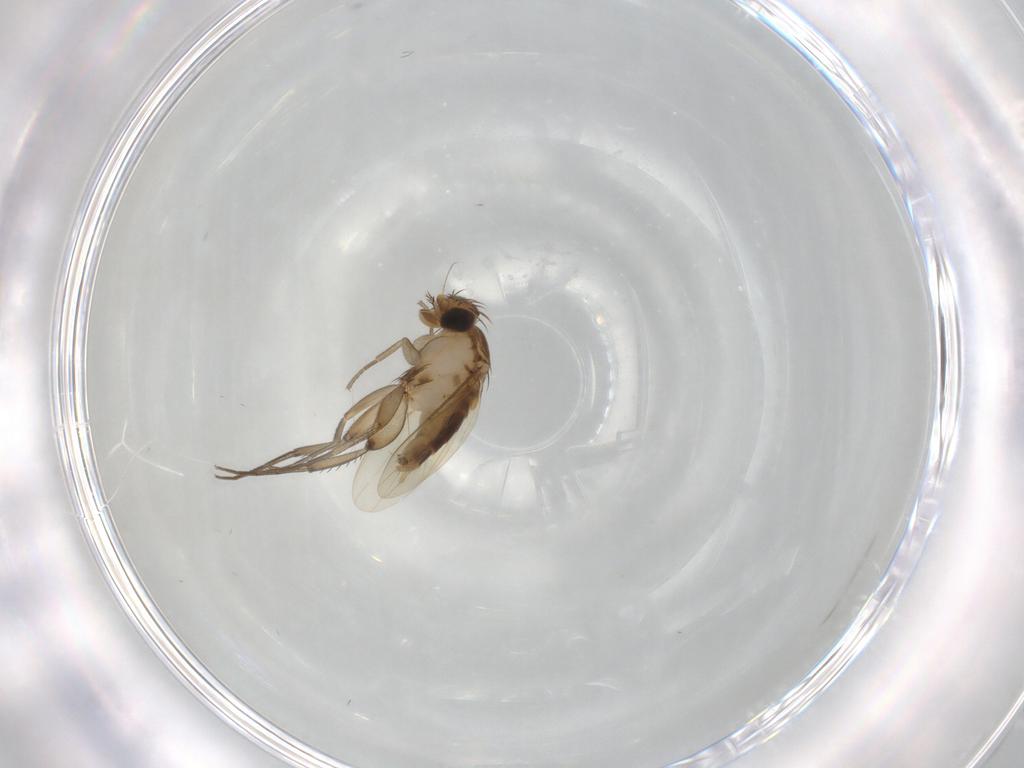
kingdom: Animalia
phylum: Arthropoda
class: Insecta
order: Diptera
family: Phoridae
